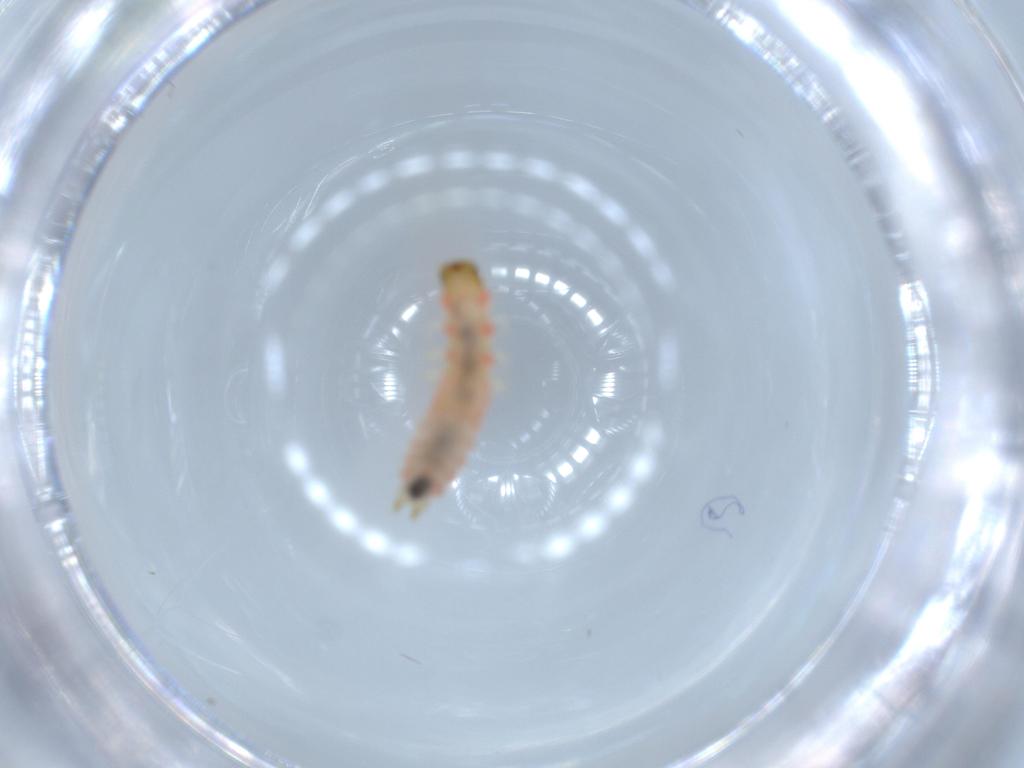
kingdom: Animalia
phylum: Arthropoda
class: Insecta
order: Coleoptera
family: Melyridae
